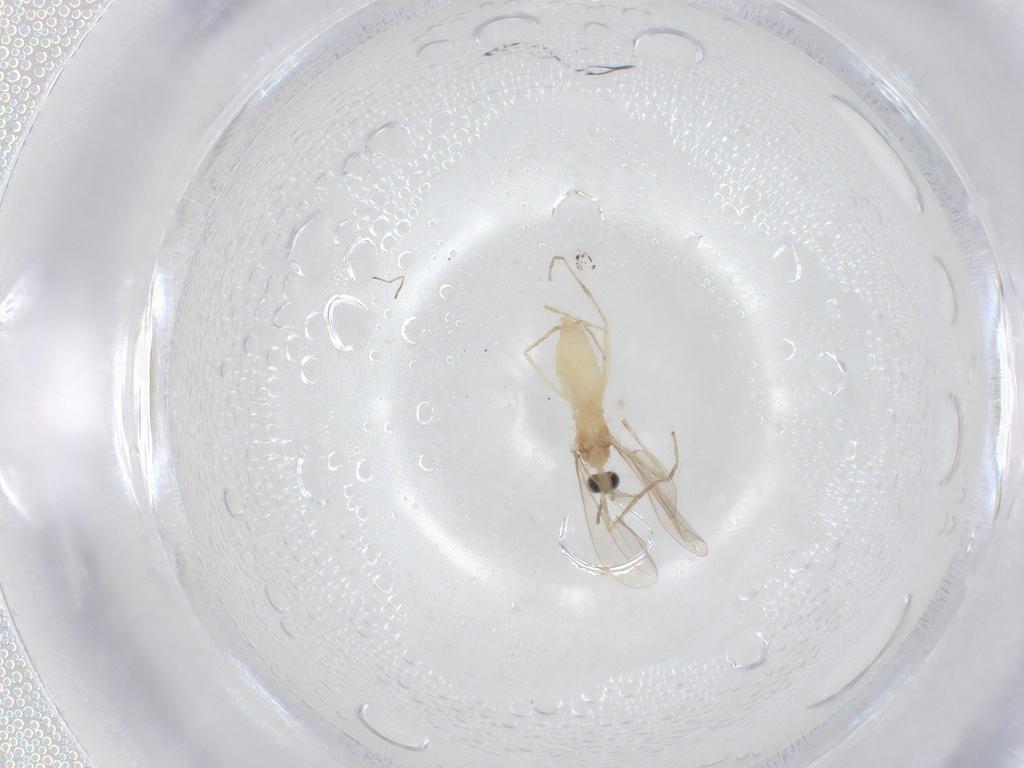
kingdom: Animalia
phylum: Arthropoda
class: Insecta
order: Diptera
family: Cecidomyiidae
